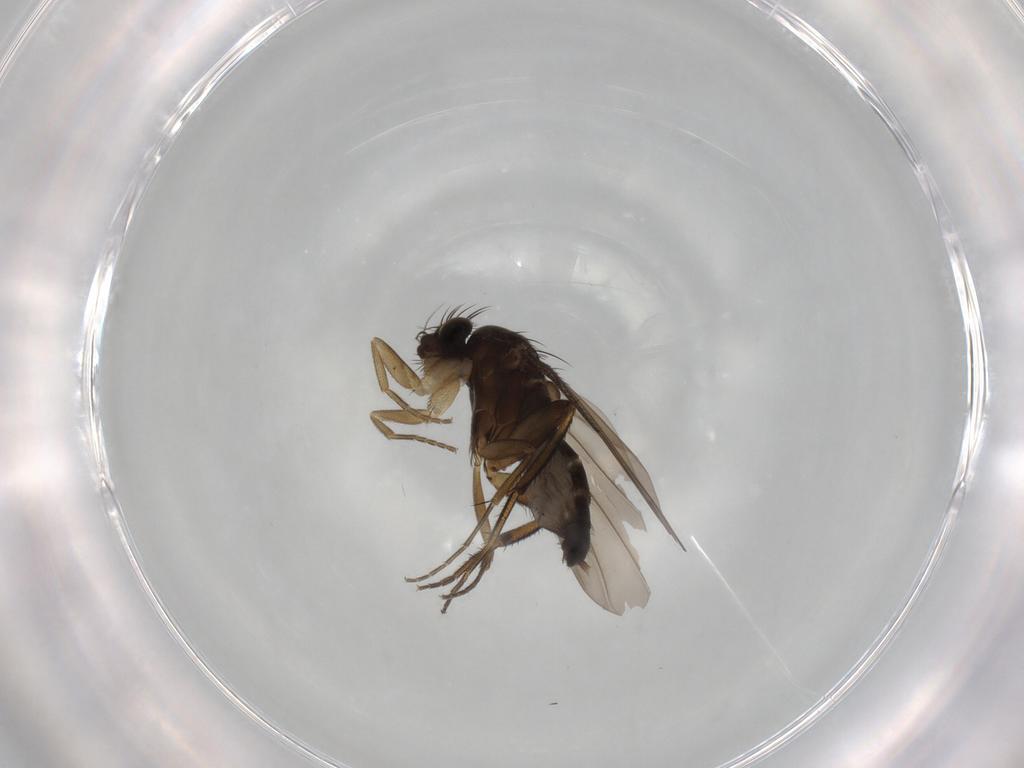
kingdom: Animalia
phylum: Arthropoda
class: Insecta
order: Diptera
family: Phoridae
